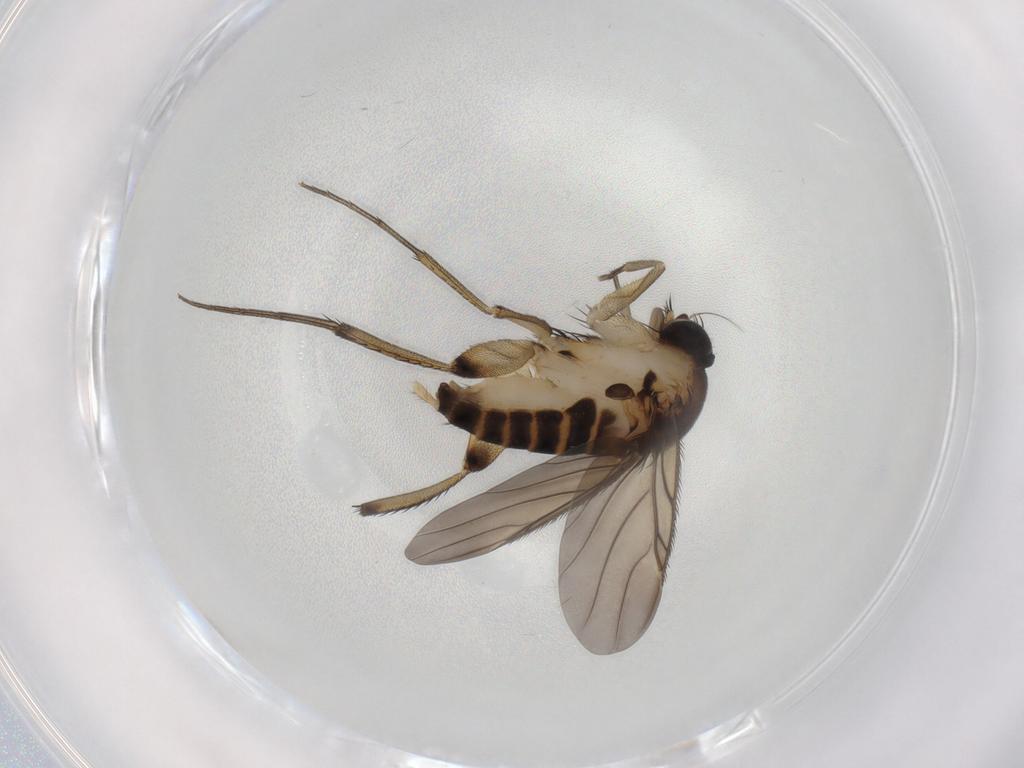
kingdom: Animalia
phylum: Arthropoda
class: Insecta
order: Diptera
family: Phoridae
